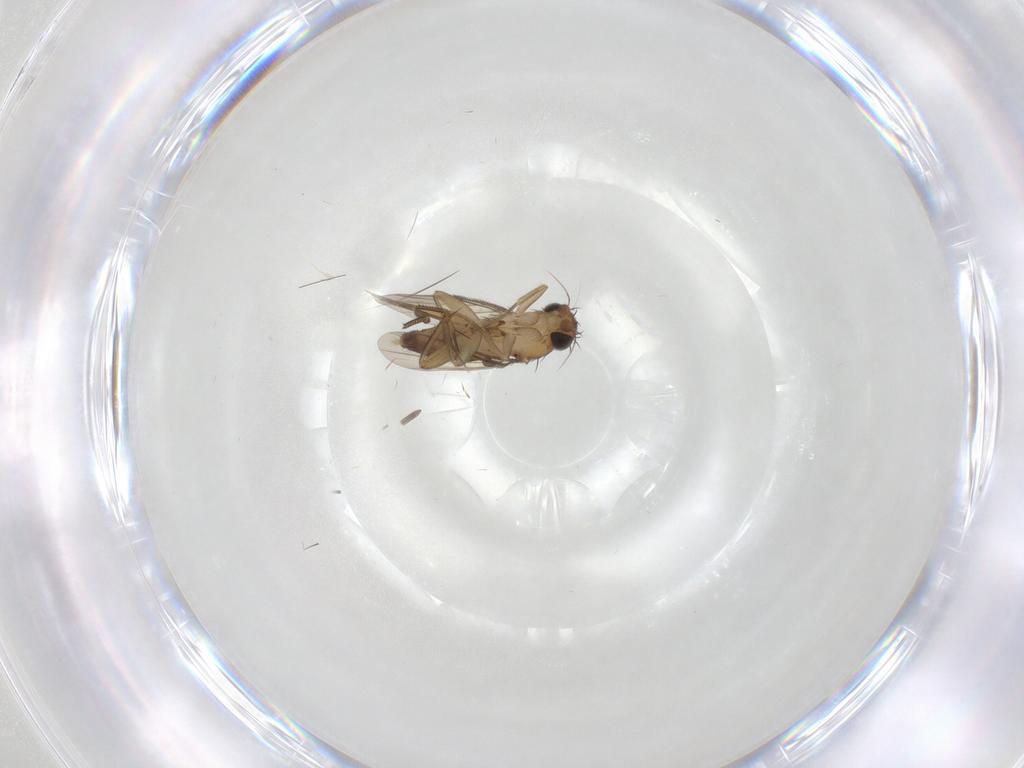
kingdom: Animalia
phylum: Arthropoda
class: Insecta
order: Diptera
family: Phoridae
